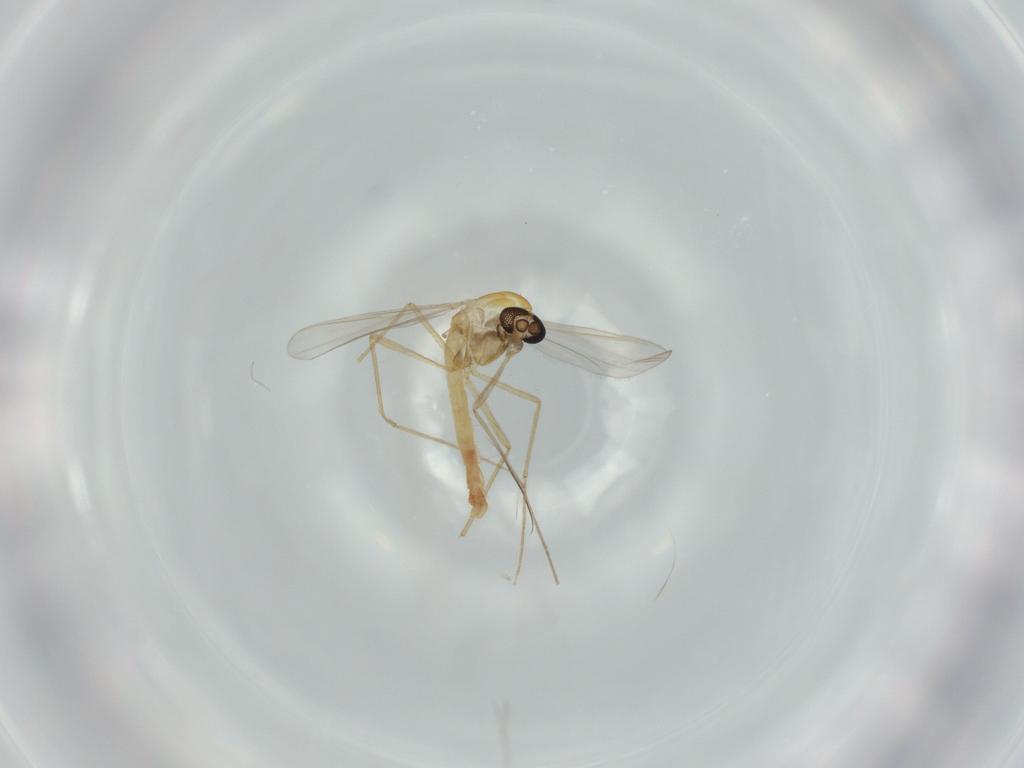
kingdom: Animalia
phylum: Arthropoda
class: Insecta
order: Diptera
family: Chironomidae
